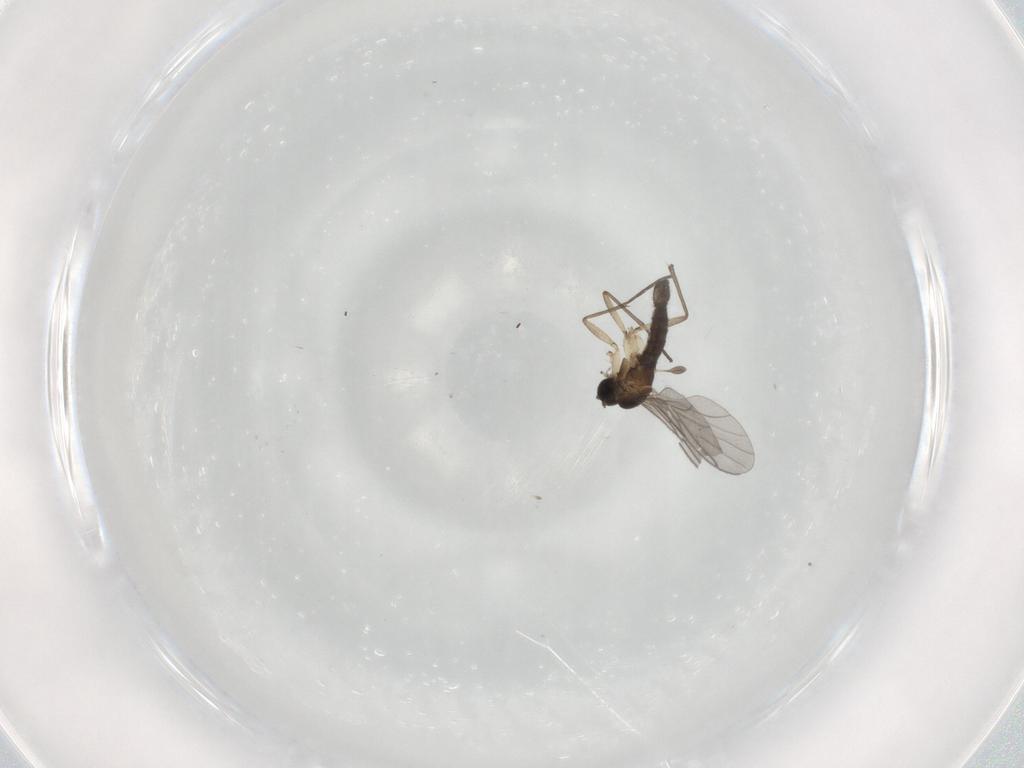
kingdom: Animalia
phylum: Arthropoda
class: Insecta
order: Diptera
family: Sciaridae
